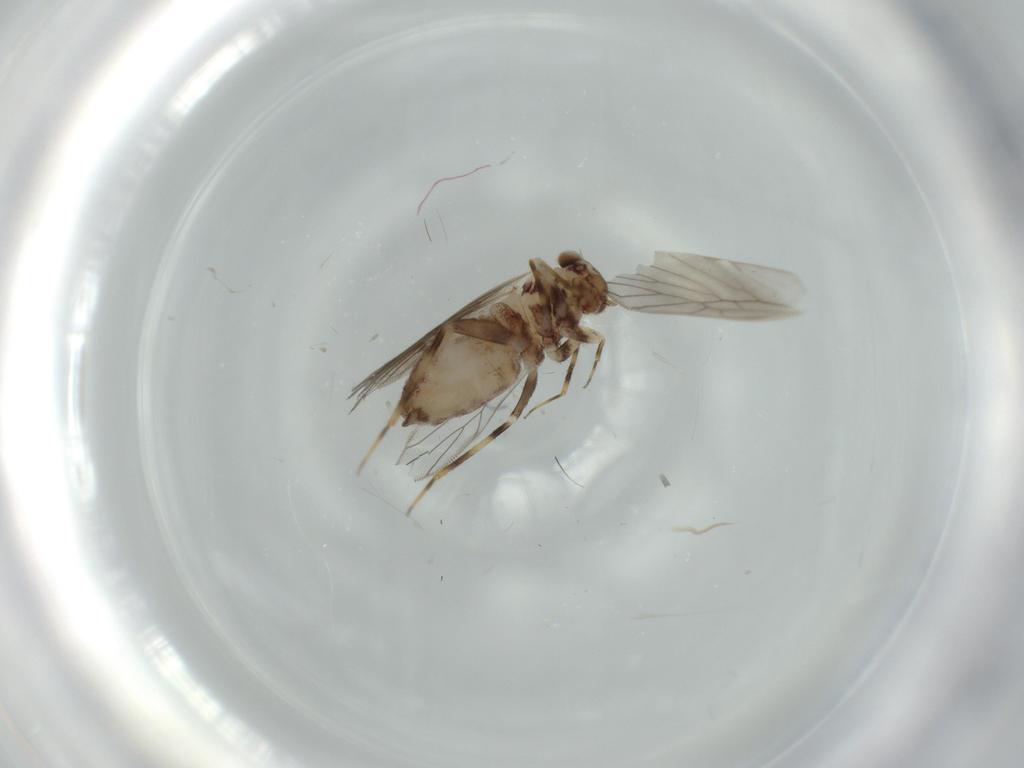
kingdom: Animalia
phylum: Arthropoda
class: Insecta
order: Psocodea
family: Lepidopsocidae
